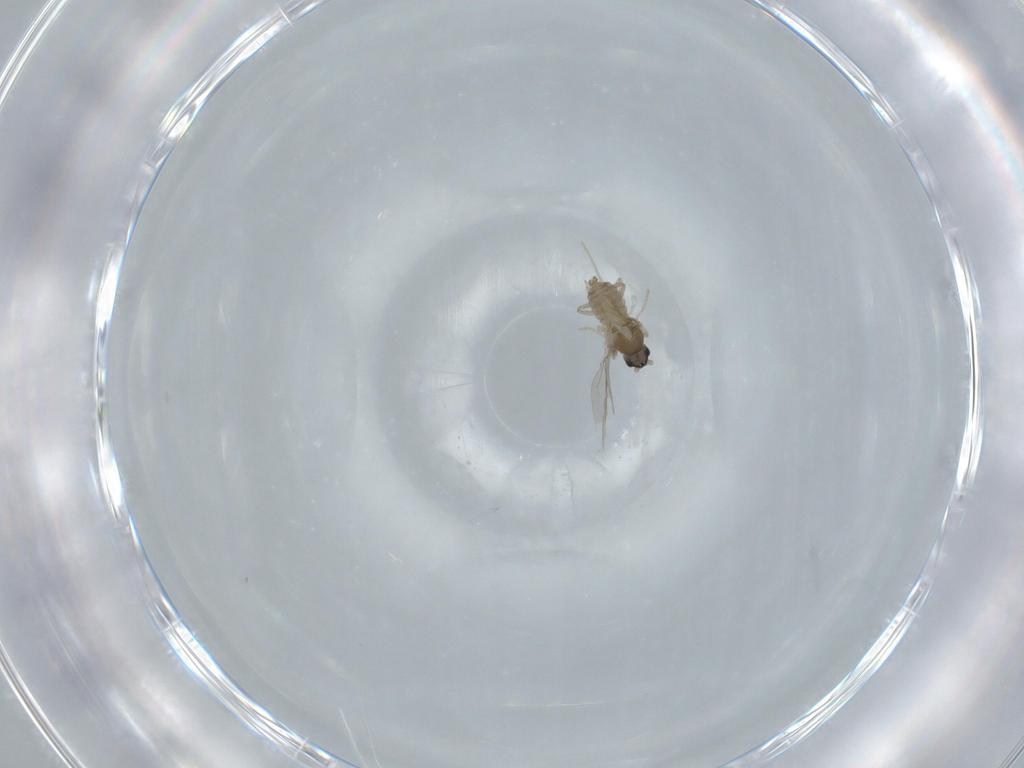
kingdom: Animalia
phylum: Arthropoda
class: Insecta
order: Diptera
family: Cecidomyiidae
